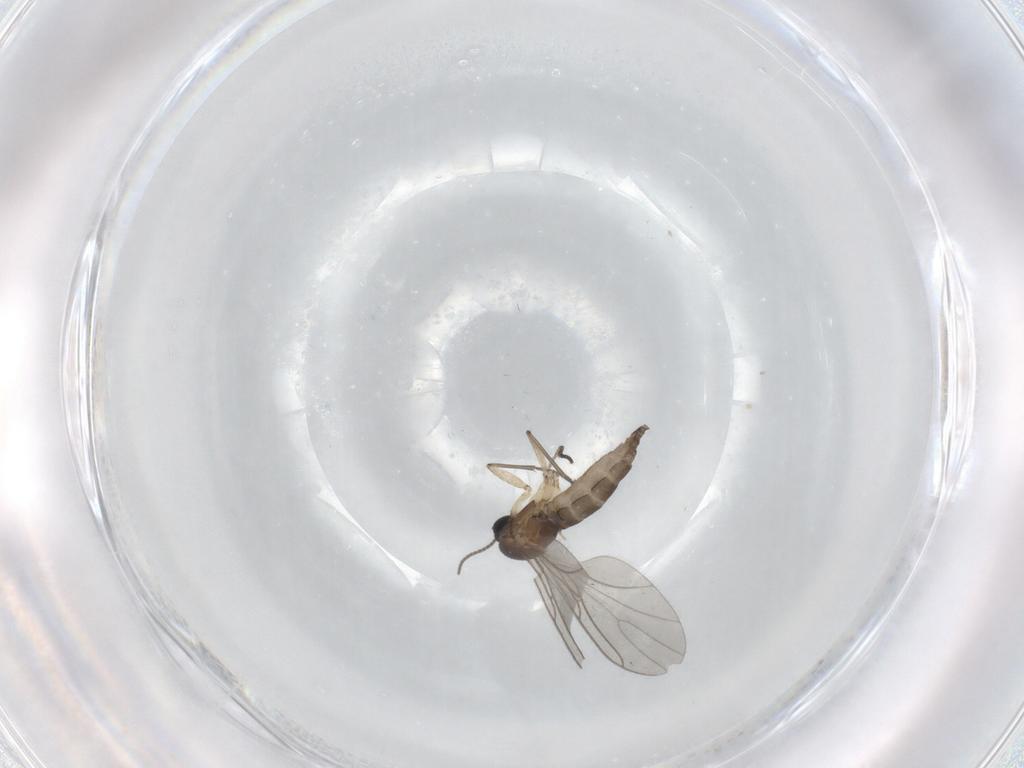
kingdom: Animalia
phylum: Arthropoda
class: Insecta
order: Diptera
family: Sciaridae
